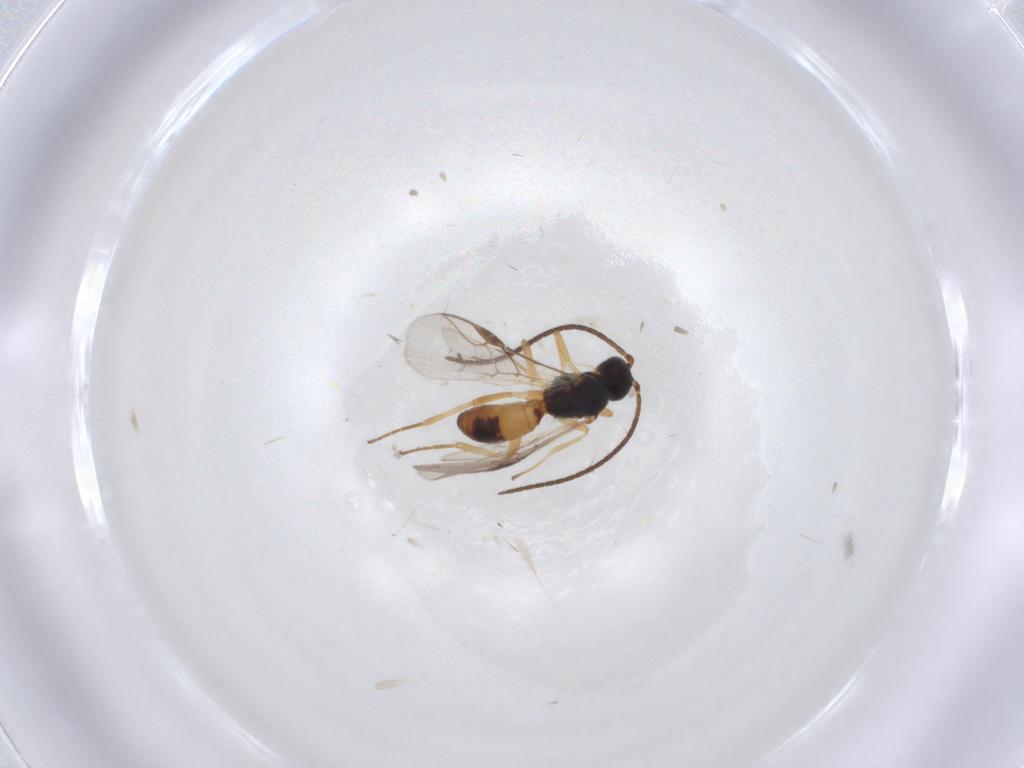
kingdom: Animalia
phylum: Arthropoda
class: Insecta
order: Hymenoptera
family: Braconidae
